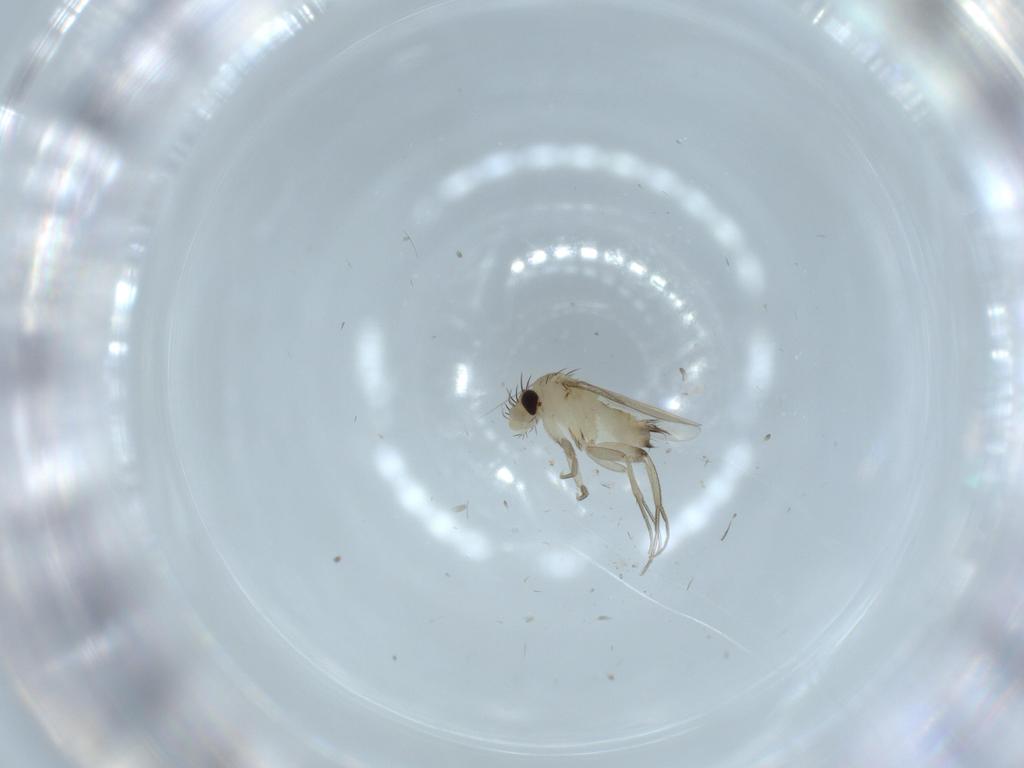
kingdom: Animalia
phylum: Arthropoda
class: Insecta
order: Diptera
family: Phoridae
